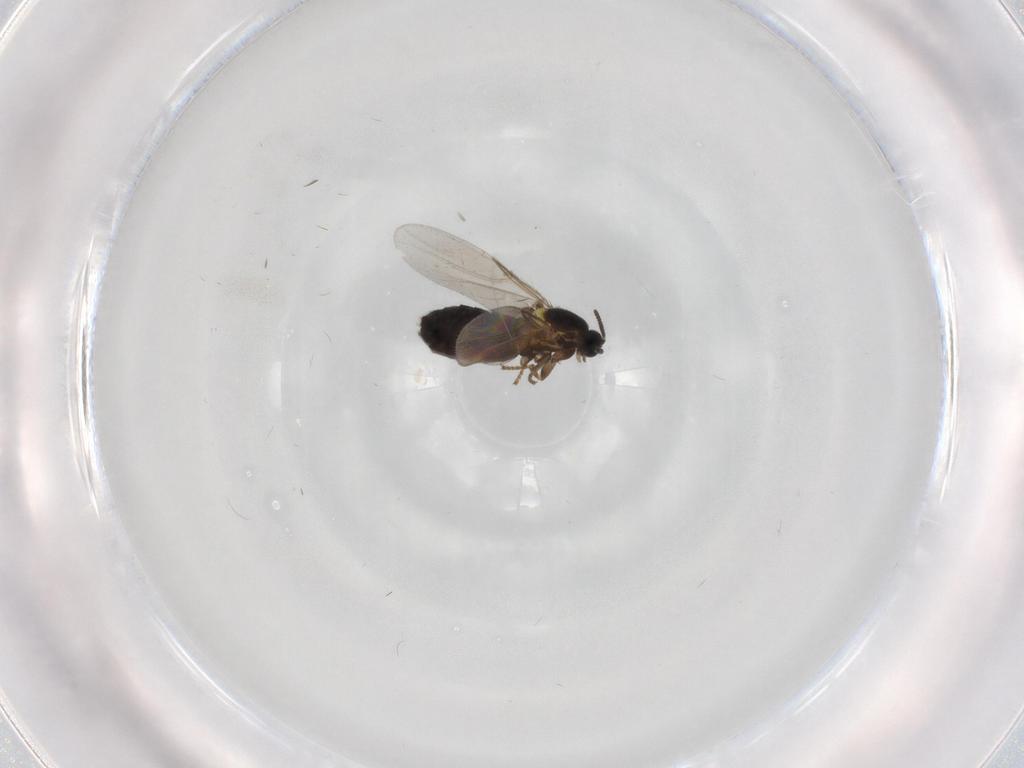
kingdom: Animalia
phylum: Arthropoda
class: Insecta
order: Diptera
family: Scatopsidae
